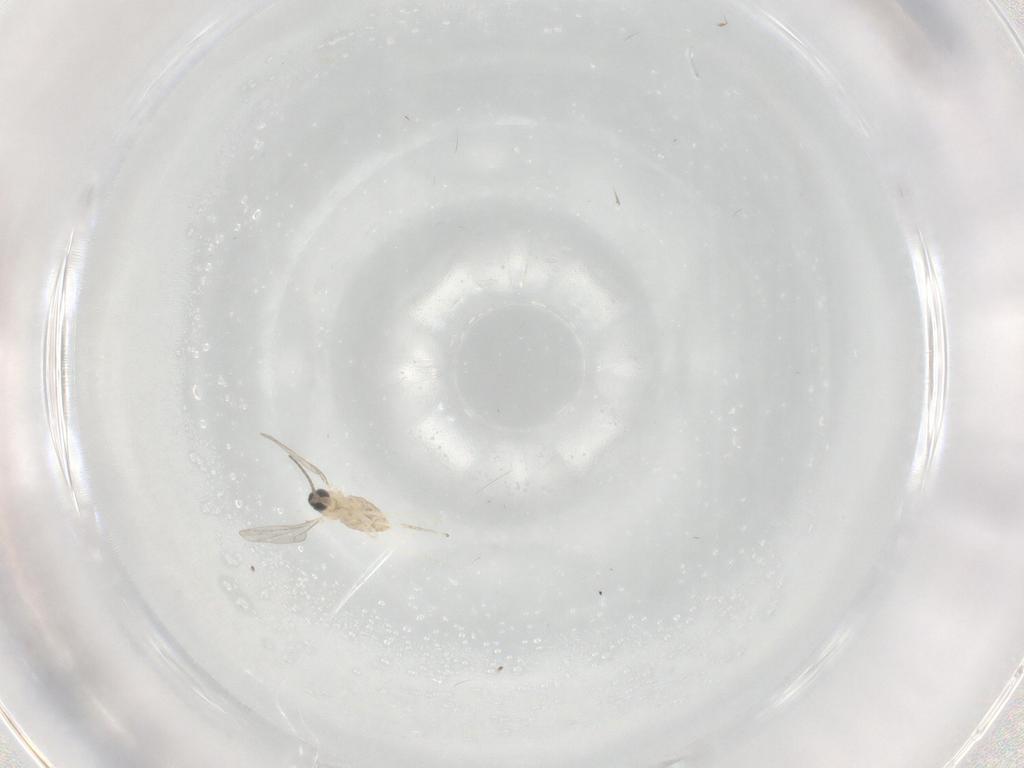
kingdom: Animalia
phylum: Arthropoda
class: Insecta
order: Diptera
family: Cecidomyiidae
